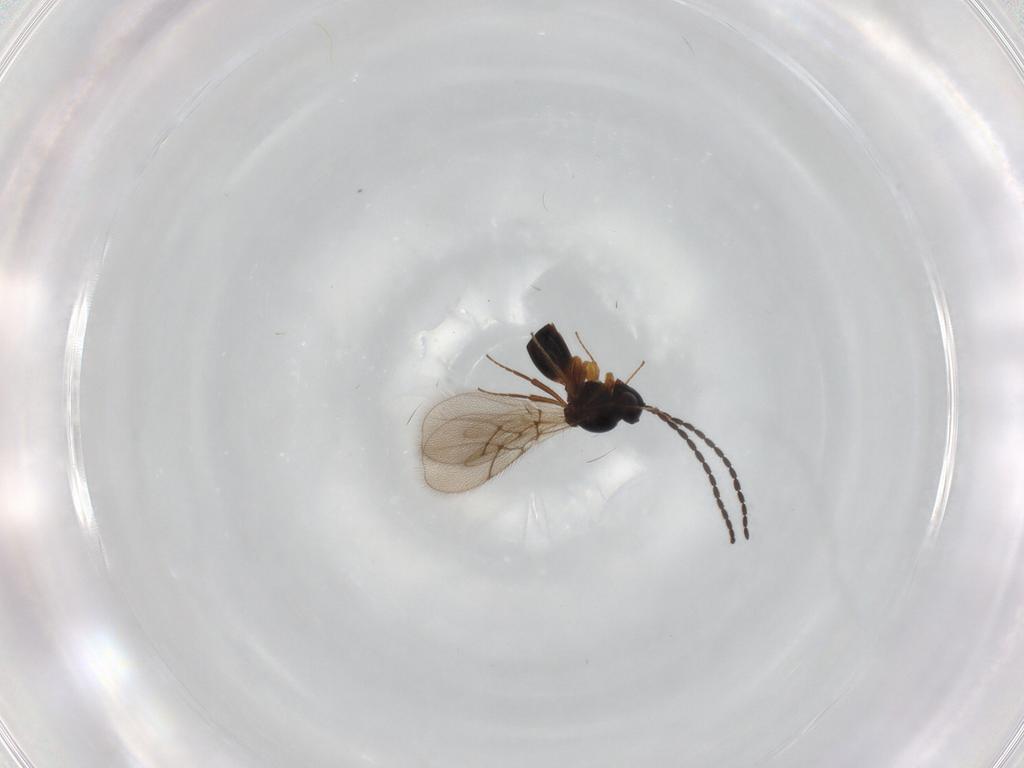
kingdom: Animalia
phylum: Arthropoda
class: Insecta
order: Hymenoptera
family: Figitidae
